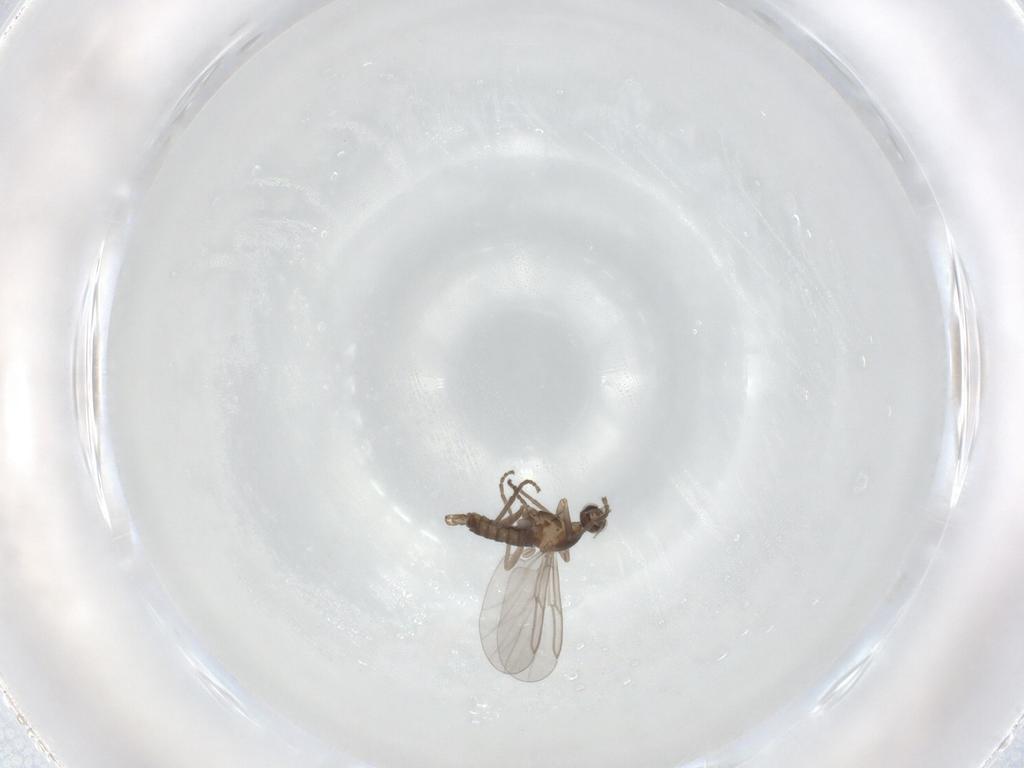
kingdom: Animalia
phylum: Arthropoda
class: Insecta
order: Diptera
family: Cecidomyiidae
